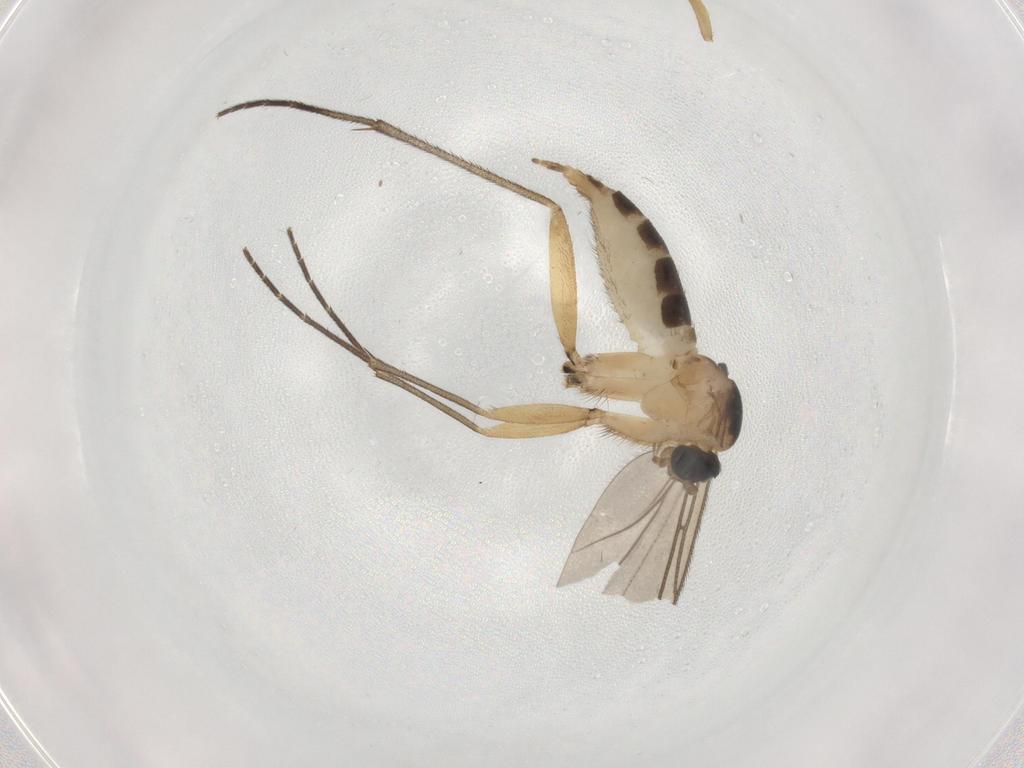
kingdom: Animalia
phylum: Arthropoda
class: Insecta
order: Diptera
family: Sciaridae
